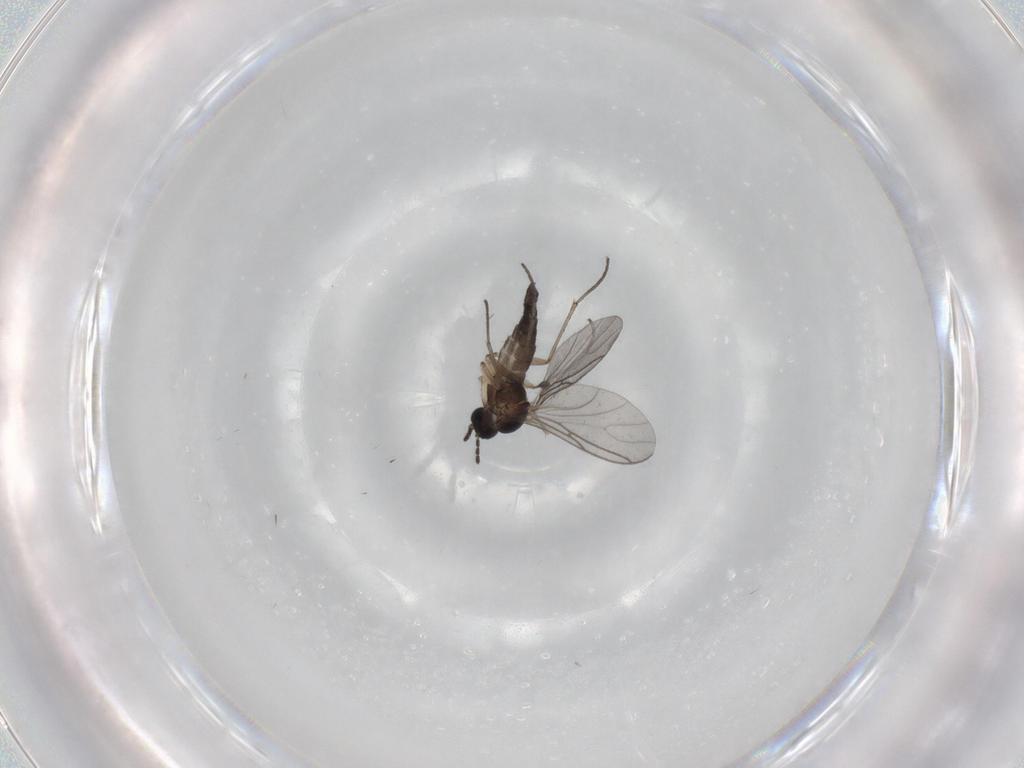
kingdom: Animalia
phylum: Arthropoda
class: Insecta
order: Diptera
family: Sciaridae
